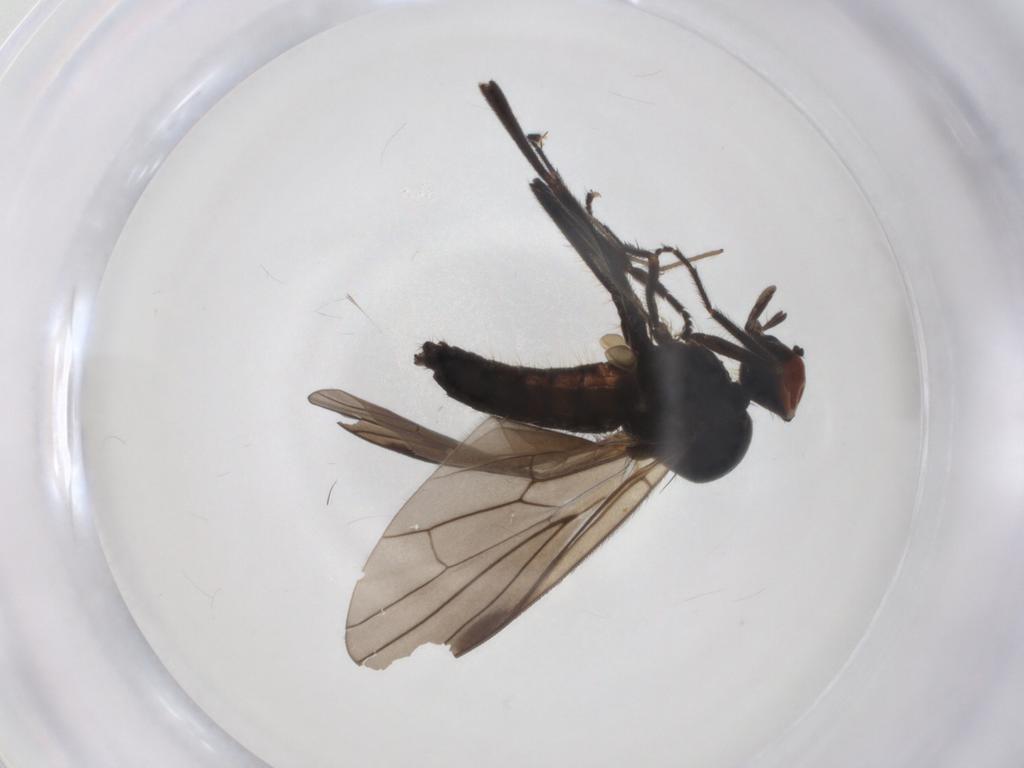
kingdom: Animalia
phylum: Arthropoda
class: Insecta
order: Diptera
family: Hybotidae
